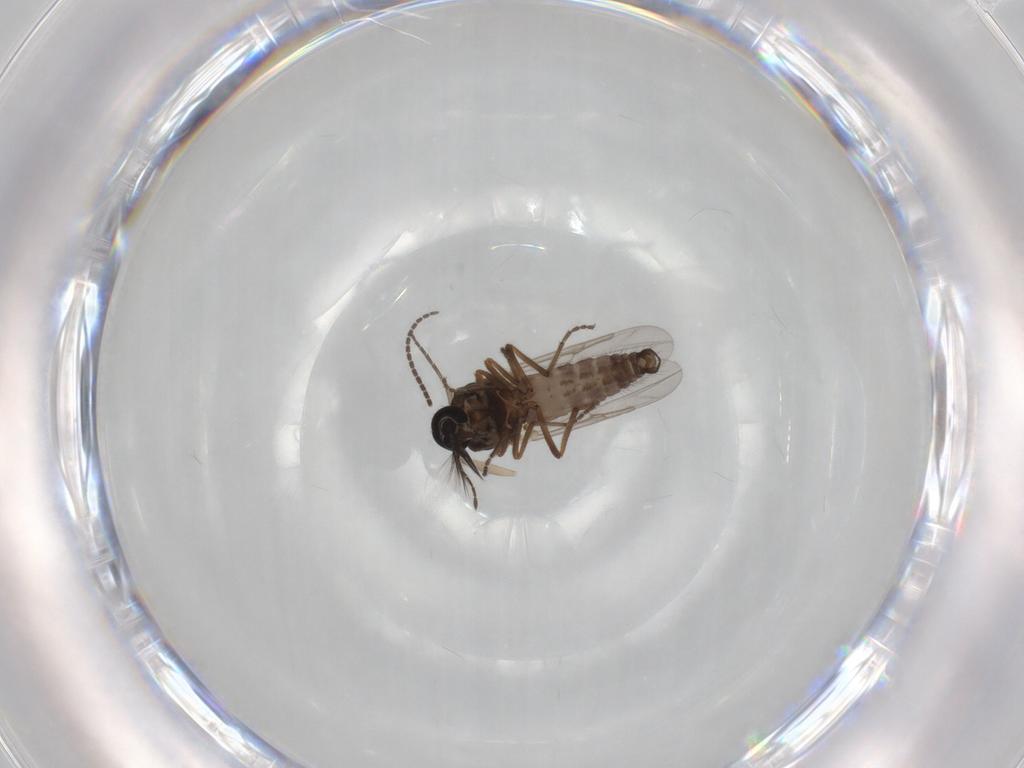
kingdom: Animalia
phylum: Arthropoda
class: Insecta
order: Diptera
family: Ceratopogonidae
